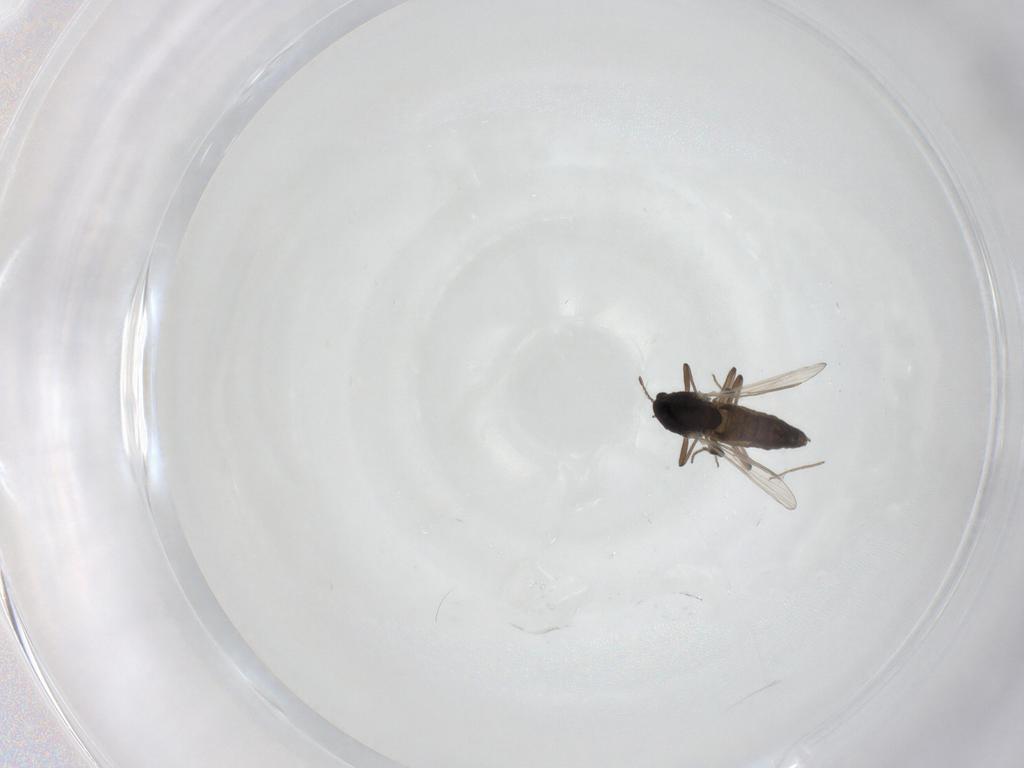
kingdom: Animalia
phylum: Arthropoda
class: Insecta
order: Diptera
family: Chironomidae
